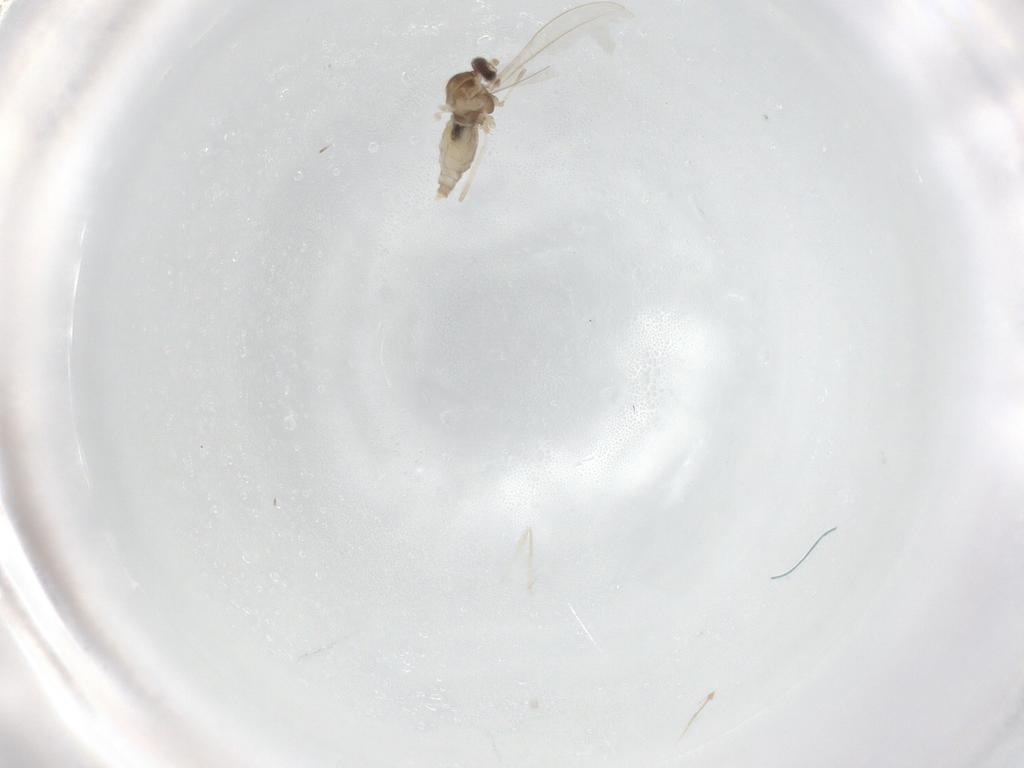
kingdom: Animalia
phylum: Arthropoda
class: Insecta
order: Diptera
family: Cecidomyiidae
